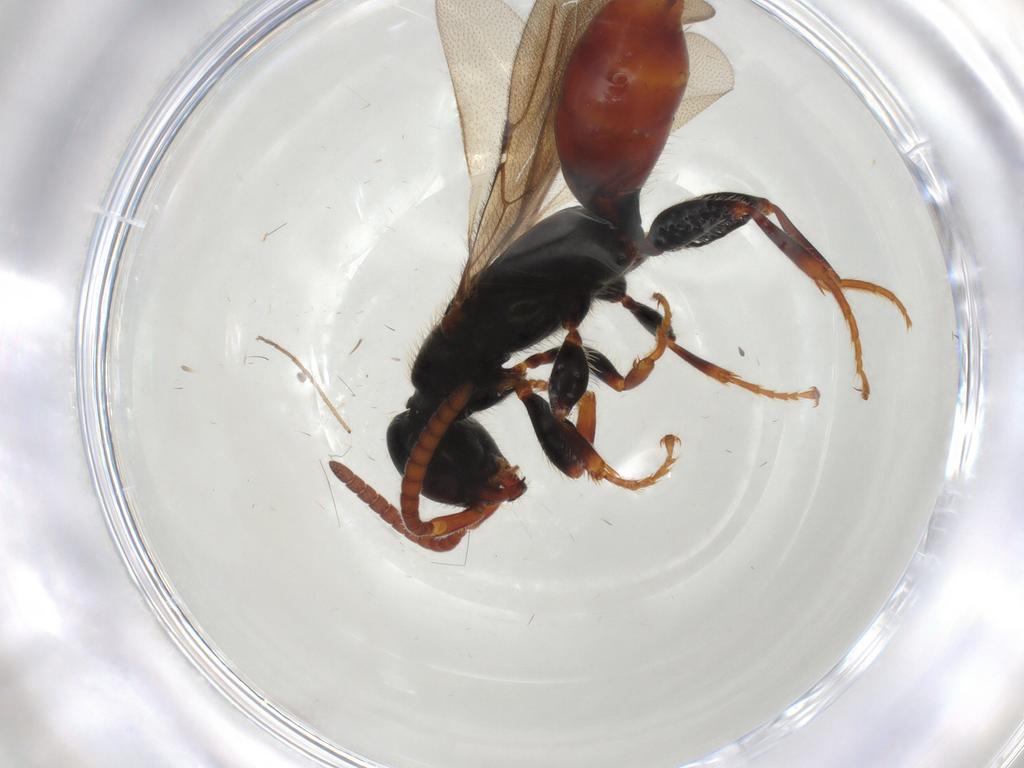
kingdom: Animalia
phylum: Arthropoda
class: Insecta
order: Hymenoptera
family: Bethylidae
